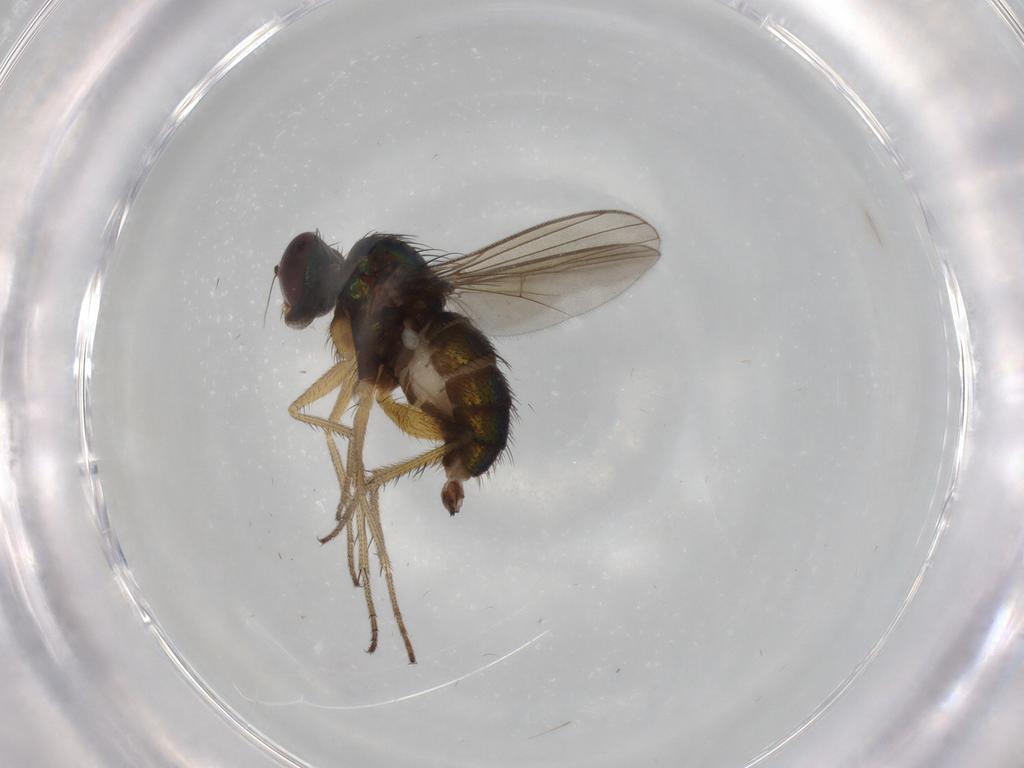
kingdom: Animalia
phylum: Arthropoda
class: Insecta
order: Diptera
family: Dolichopodidae
